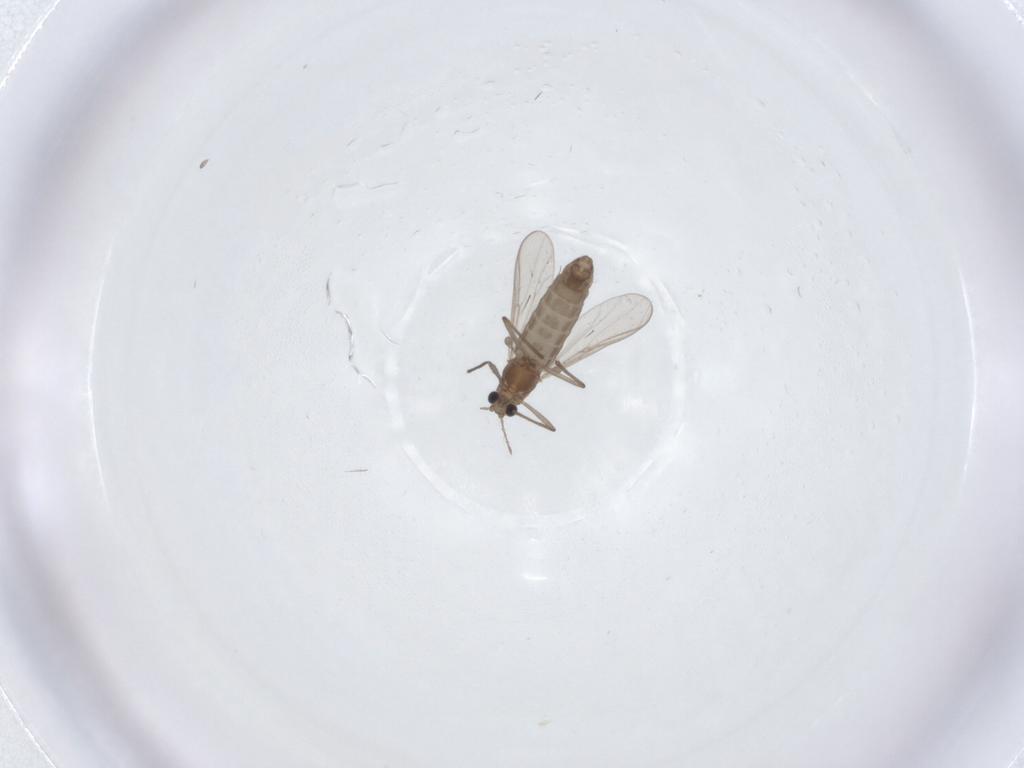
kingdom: Animalia
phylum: Arthropoda
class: Insecta
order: Diptera
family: Chironomidae
